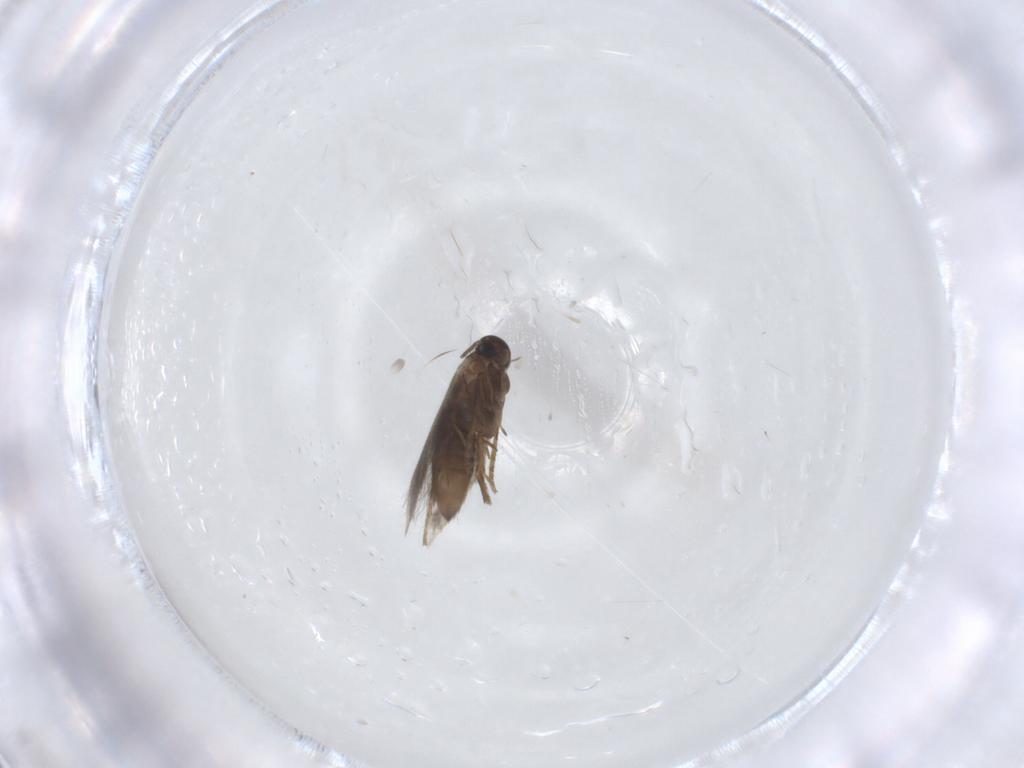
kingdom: Animalia
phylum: Arthropoda
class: Insecta
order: Lepidoptera
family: Heliozelidae
